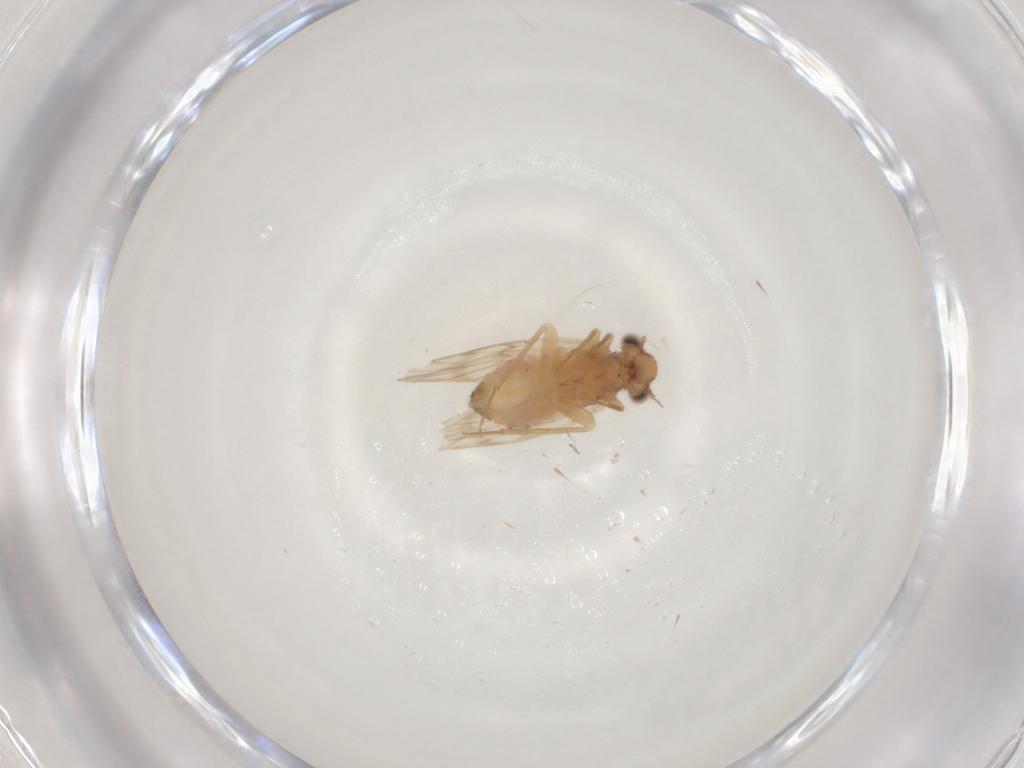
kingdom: Animalia
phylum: Arthropoda
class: Insecta
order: Psocodea
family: Lepidopsocidae
